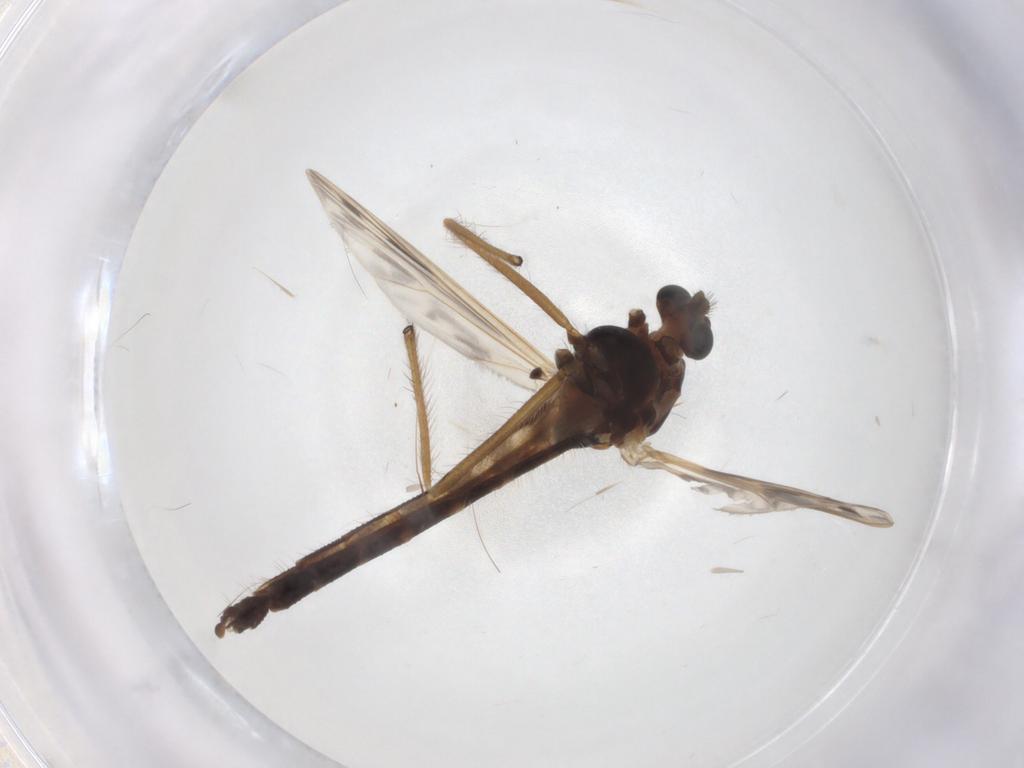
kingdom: Animalia
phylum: Arthropoda
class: Insecta
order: Diptera
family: Chironomidae
